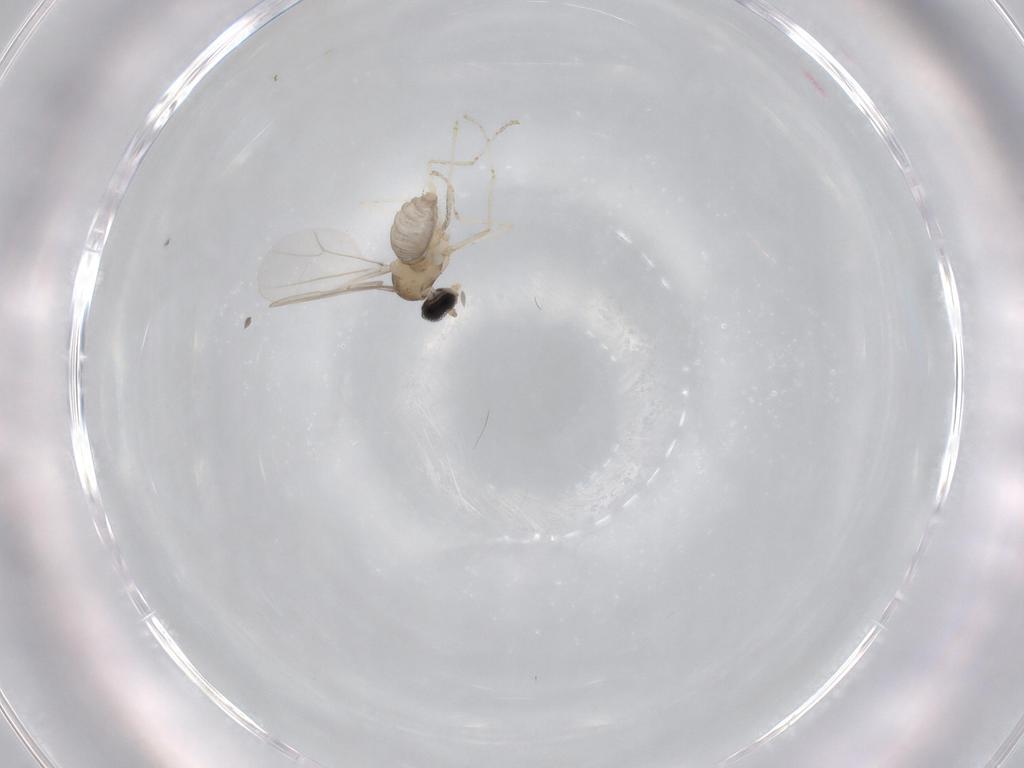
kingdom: Animalia
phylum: Arthropoda
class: Insecta
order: Diptera
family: Cecidomyiidae
